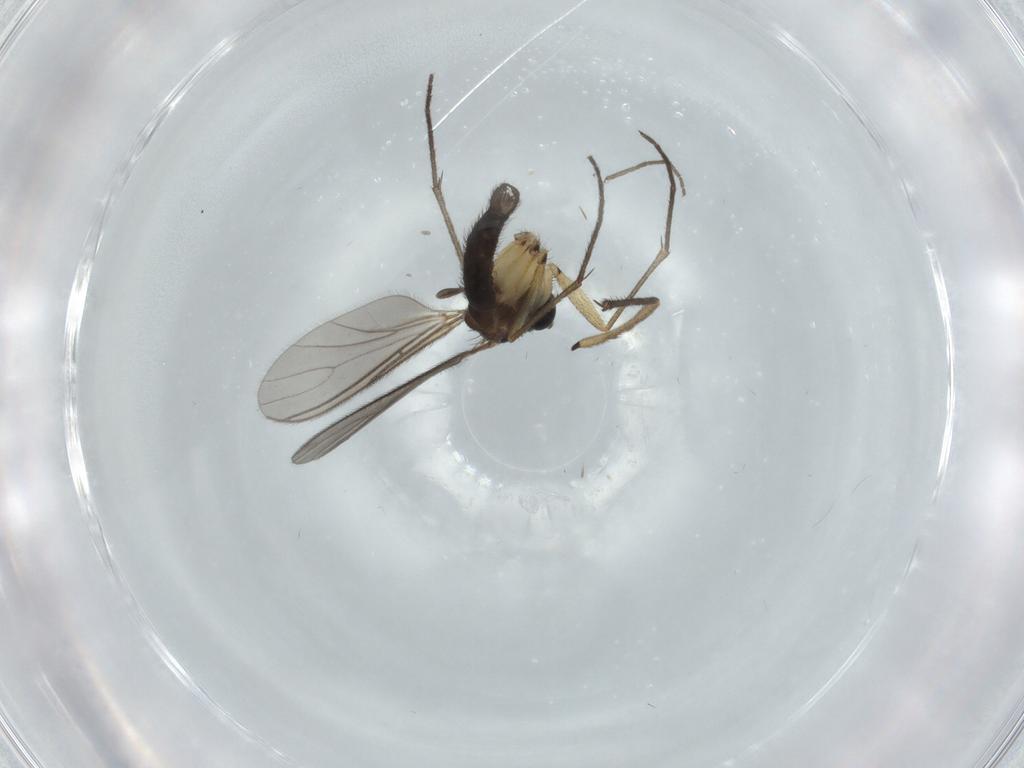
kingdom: Animalia
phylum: Arthropoda
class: Insecta
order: Diptera
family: Sciaridae
